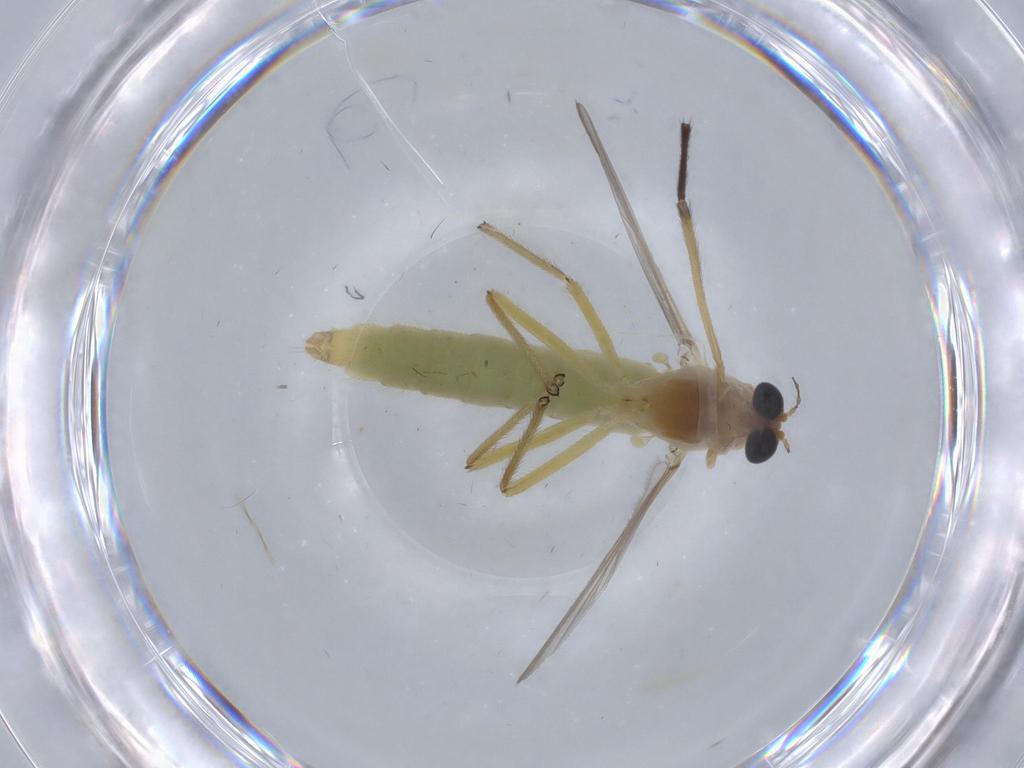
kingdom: Animalia
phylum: Arthropoda
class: Insecta
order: Diptera
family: Chironomidae
